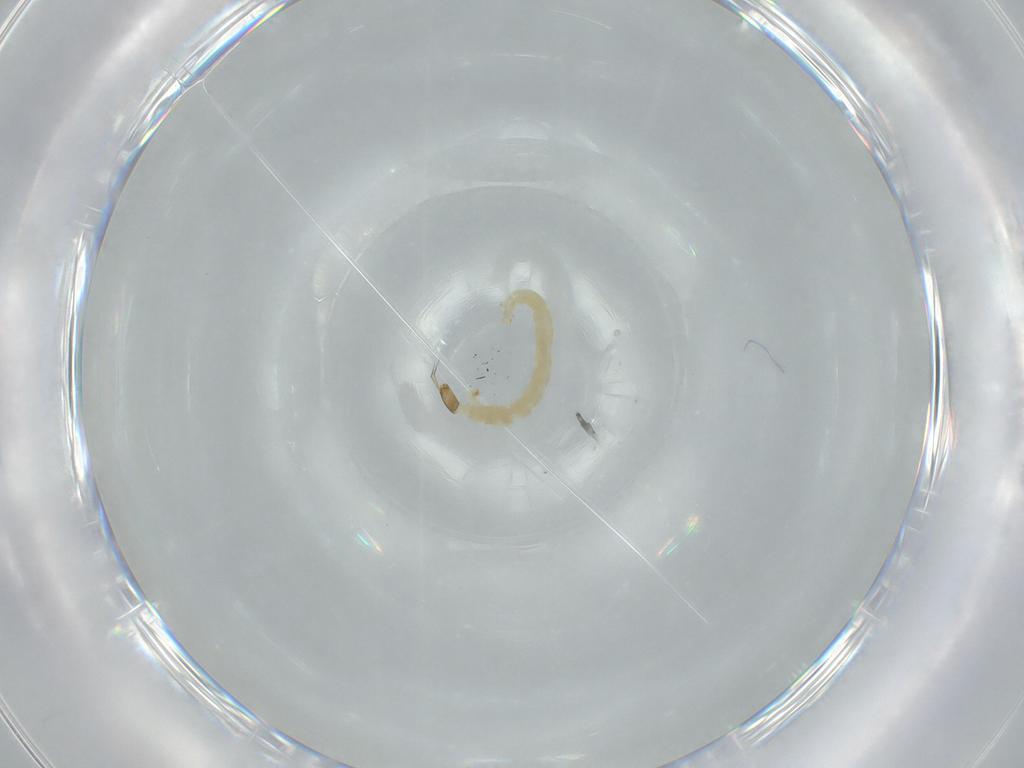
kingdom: Animalia
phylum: Arthropoda
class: Insecta
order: Diptera
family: Chironomidae
